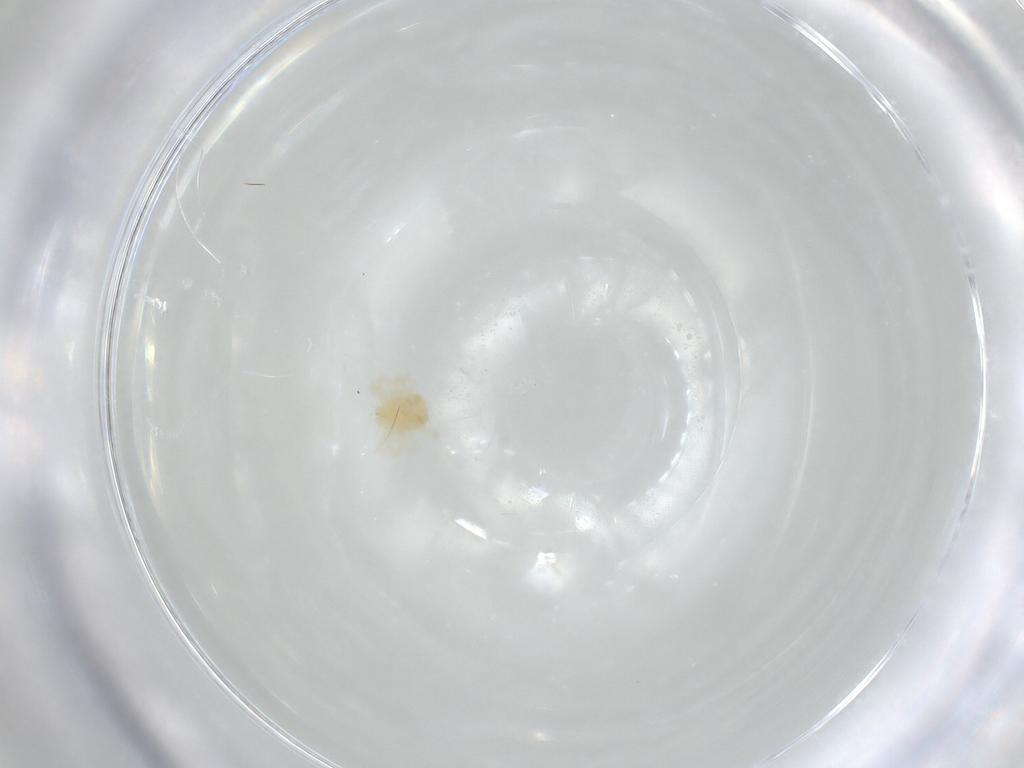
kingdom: Animalia
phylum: Arthropoda
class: Arachnida
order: Trombidiformes
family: Anystidae
